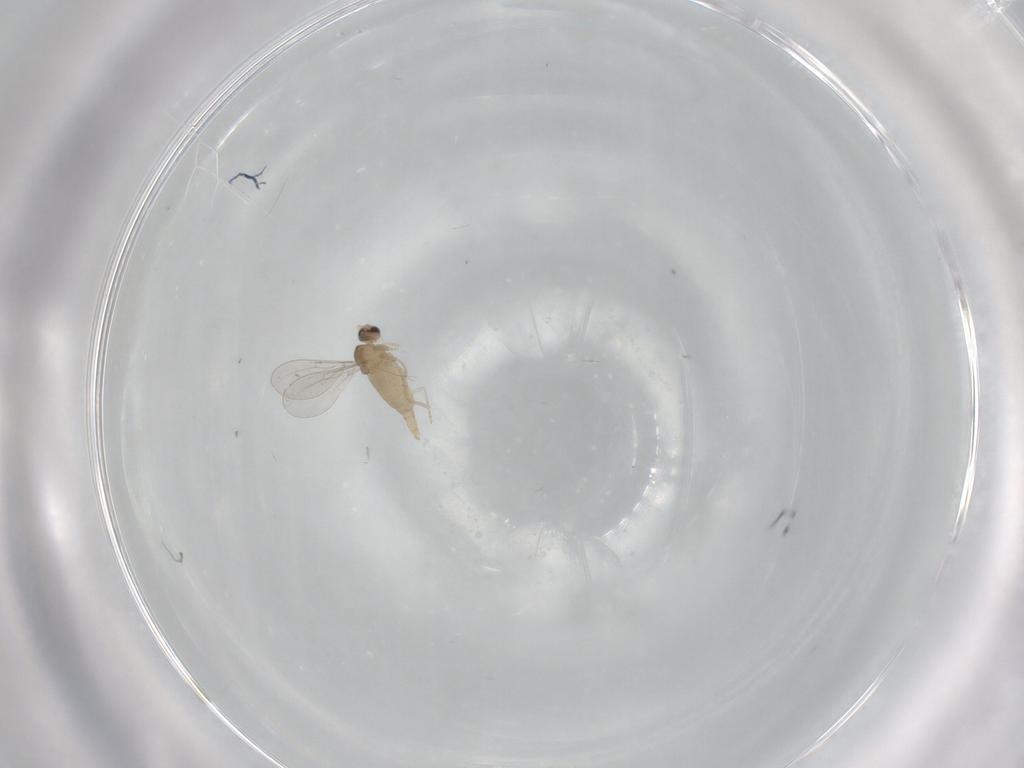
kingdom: Animalia
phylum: Arthropoda
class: Insecta
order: Diptera
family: Cecidomyiidae
